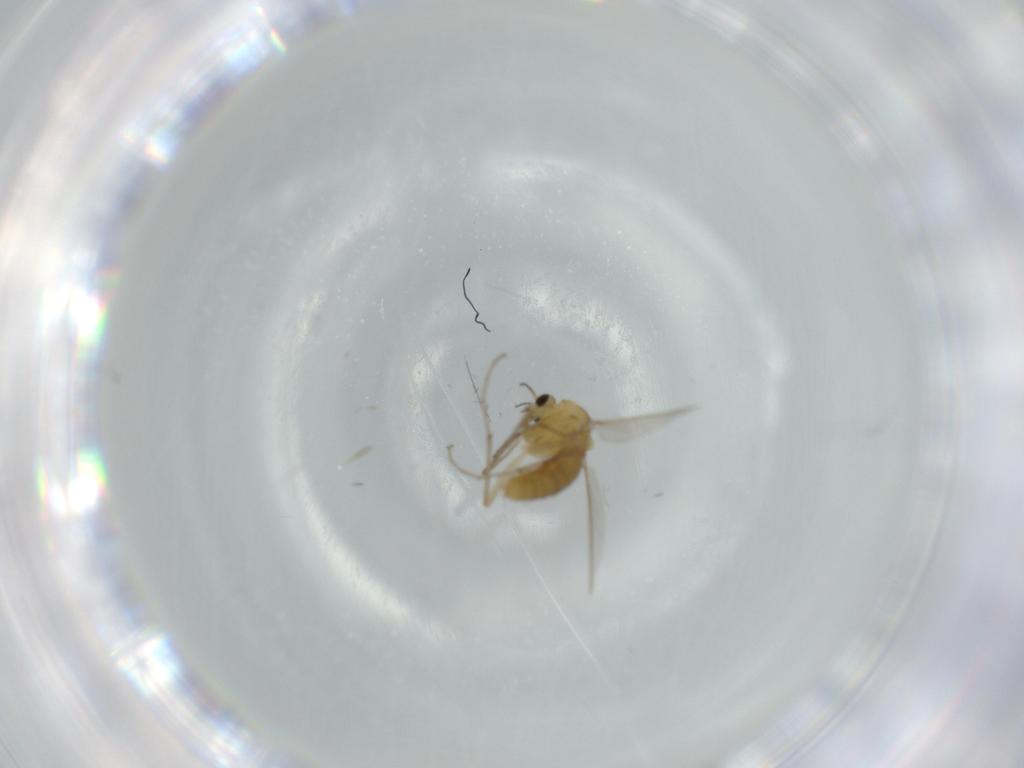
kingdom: Animalia
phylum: Arthropoda
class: Insecta
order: Diptera
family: Chironomidae
